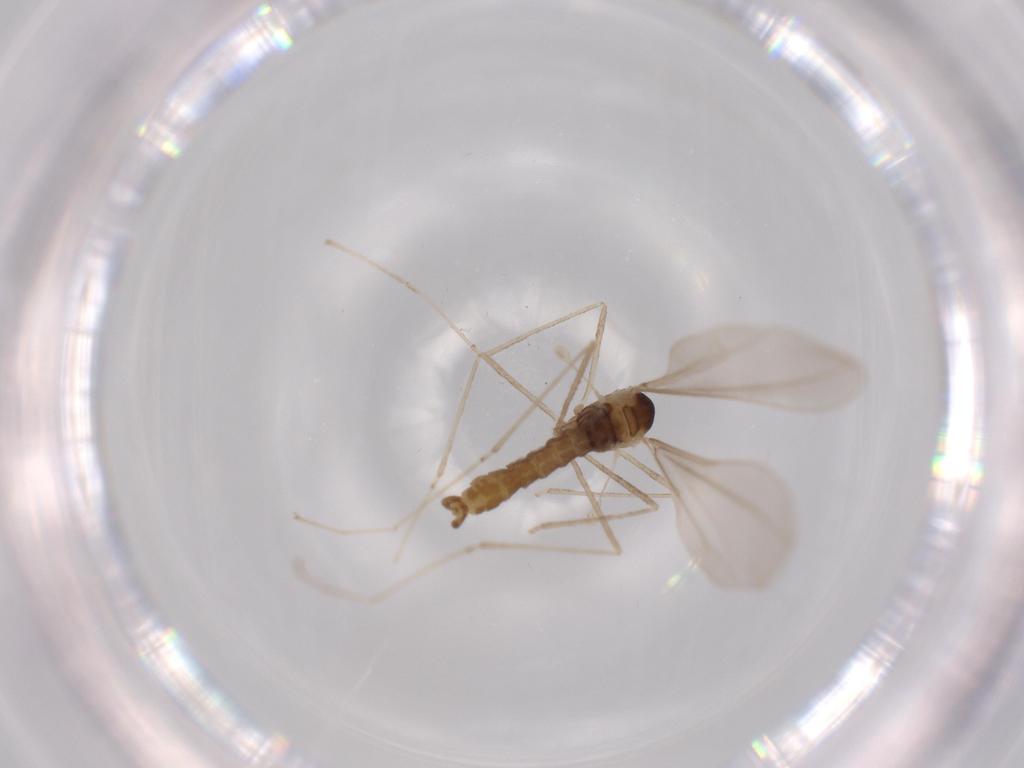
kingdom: Animalia
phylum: Arthropoda
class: Insecta
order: Diptera
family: Cecidomyiidae
